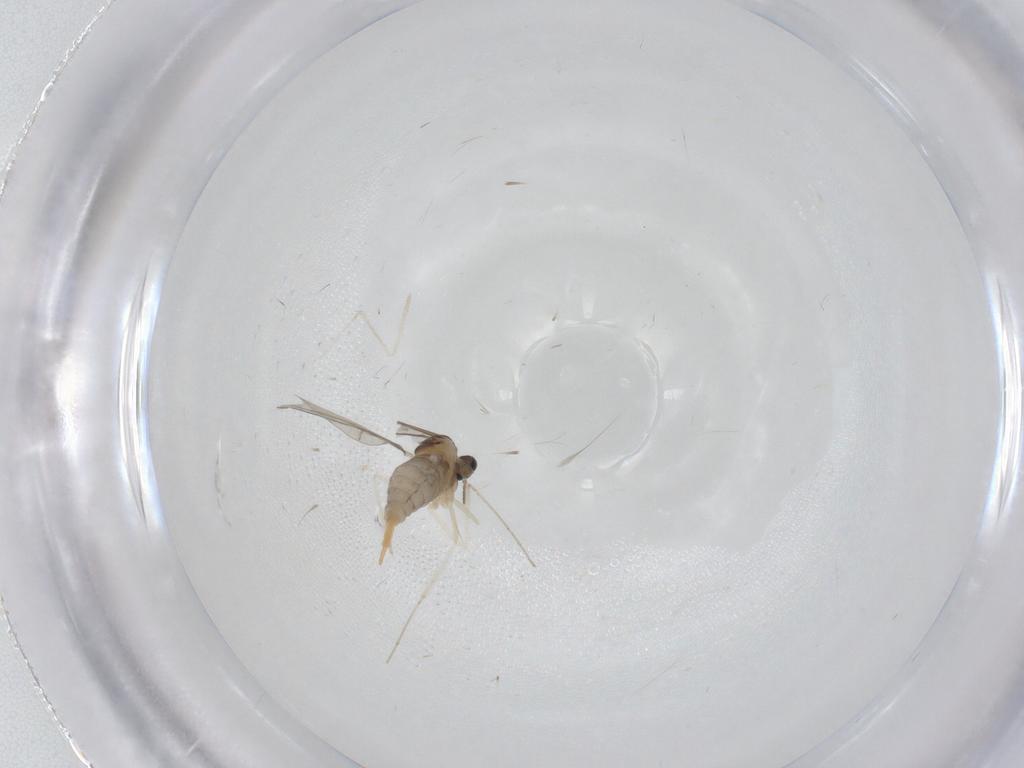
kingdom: Animalia
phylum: Arthropoda
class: Insecta
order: Diptera
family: Cecidomyiidae
